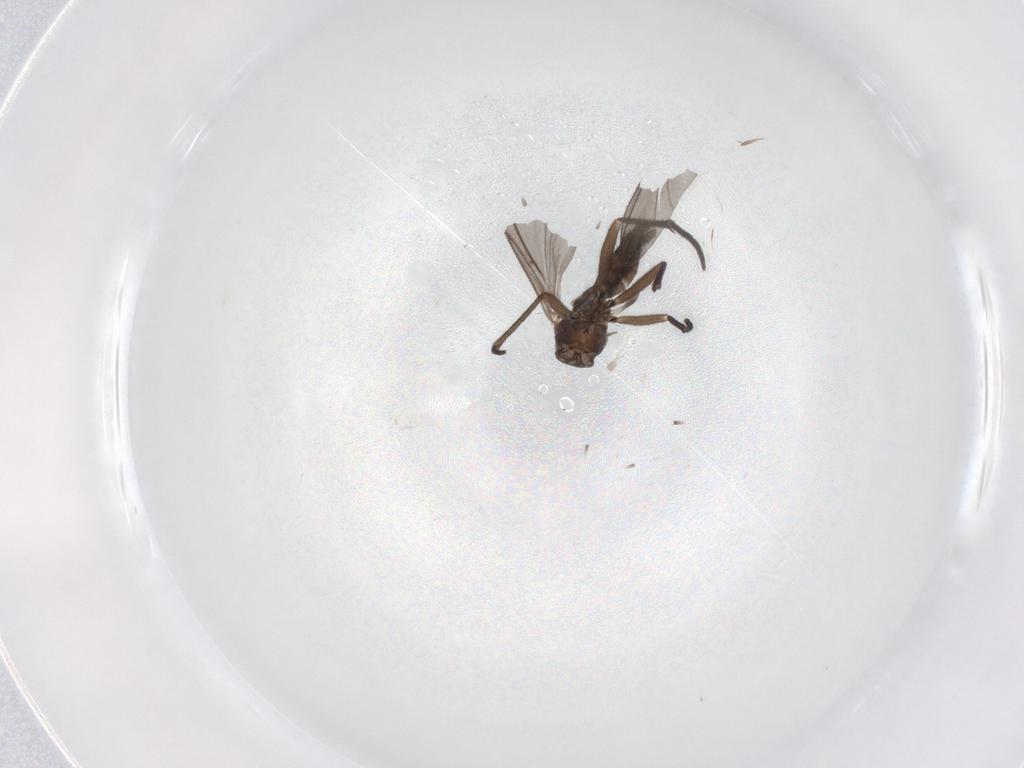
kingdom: Animalia
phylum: Arthropoda
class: Insecta
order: Diptera
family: Sciaridae
